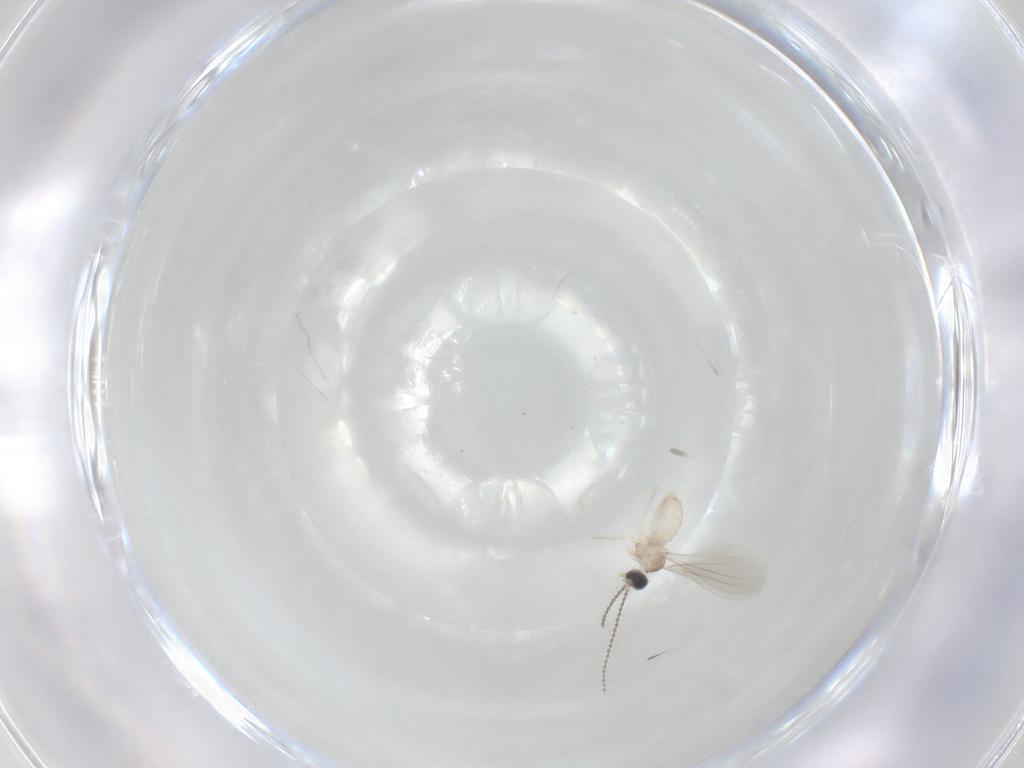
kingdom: Animalia
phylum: Arthropoda
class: Insecta
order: Diptera
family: Cecidomyiidae
